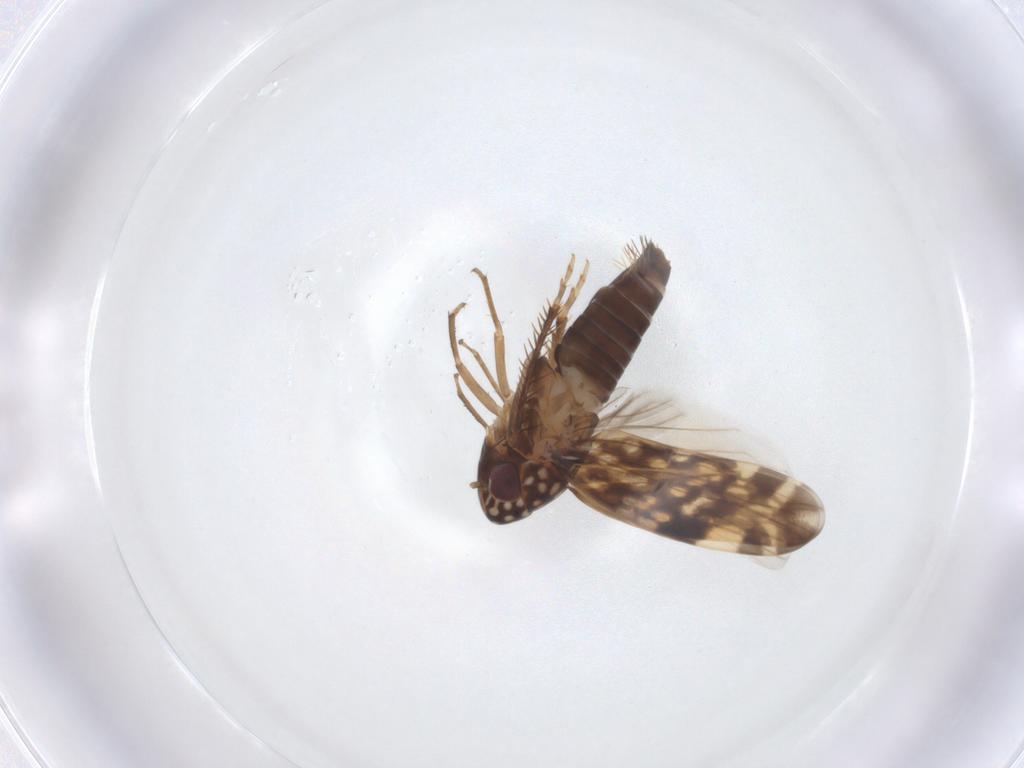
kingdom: Animalia
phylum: Arthropoda
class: Insecta
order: Hemiptera
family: Cicadellidae
